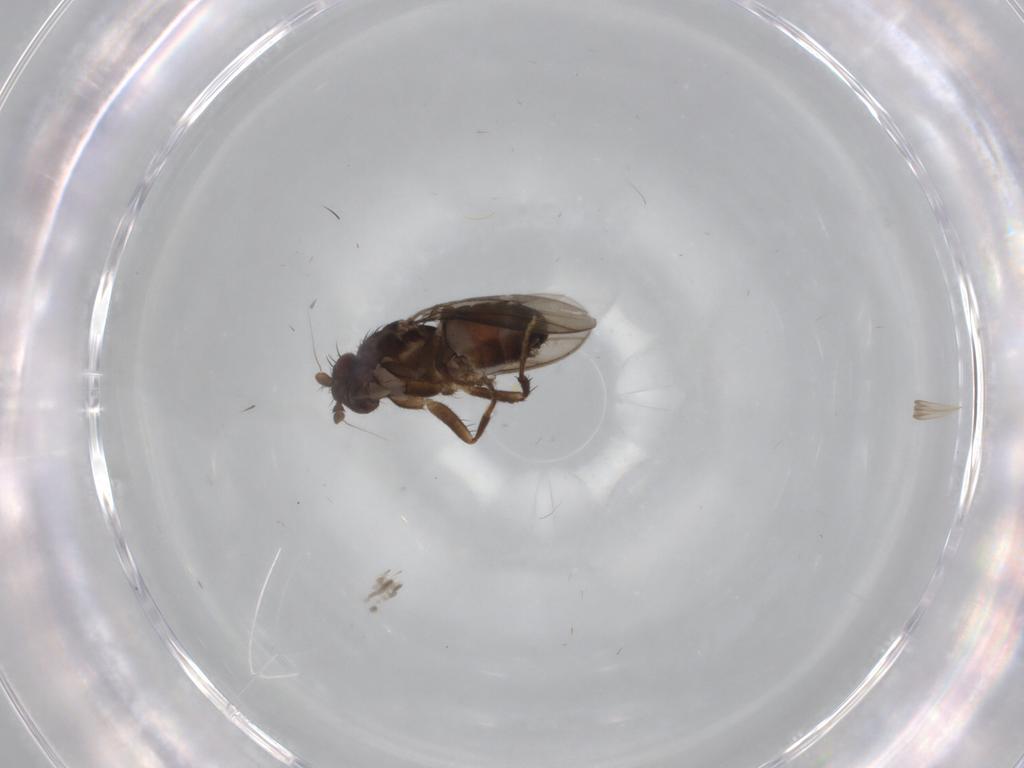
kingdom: Animalia
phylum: Arthropoda
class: Insecta
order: Diptera
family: Sphaeroceridae
